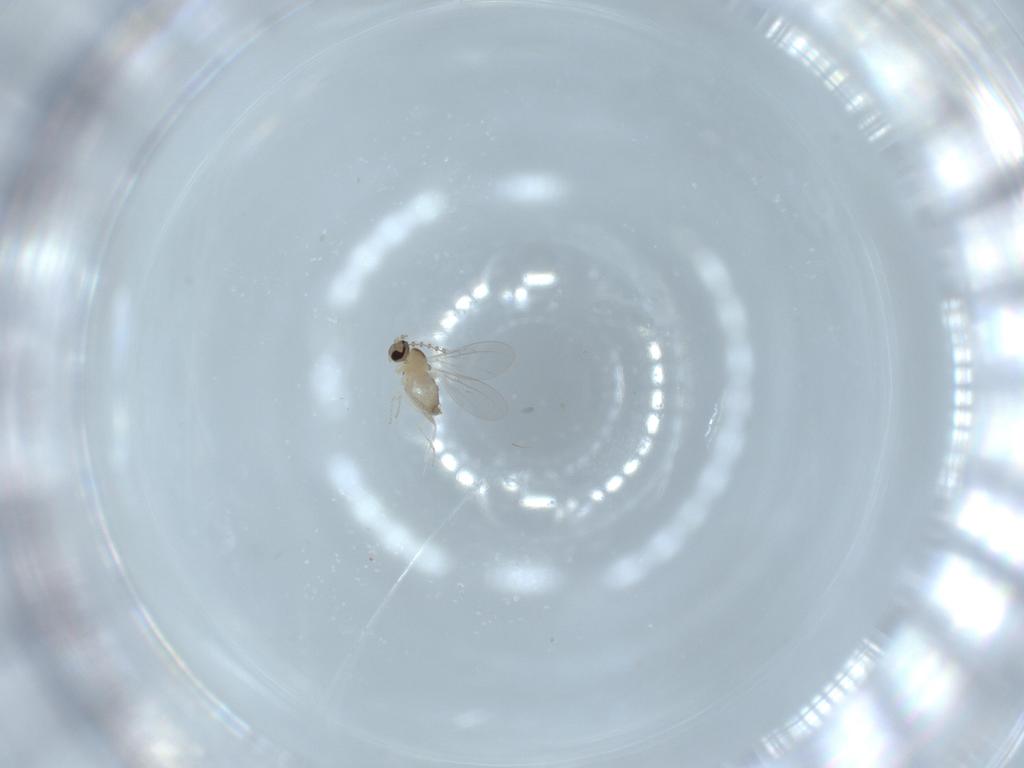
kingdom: Animalia
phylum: Arthropoda
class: Insecta
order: Diptera
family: Cecidomyiidae
